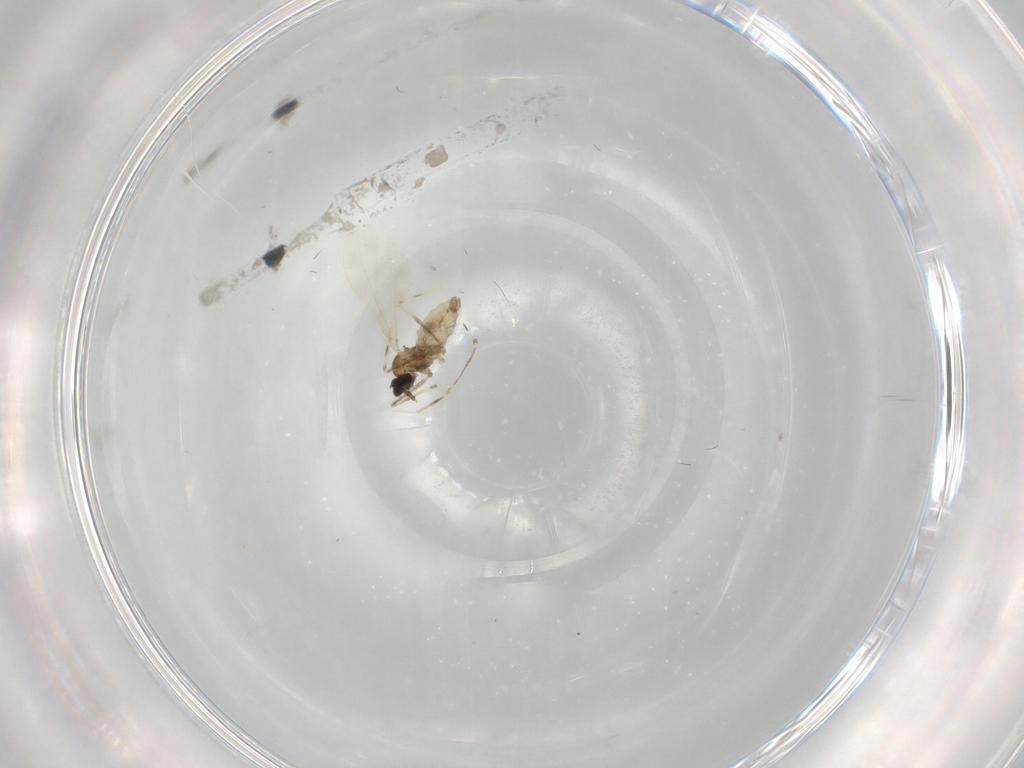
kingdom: Animalia
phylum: Arthropoda
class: Insecta
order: Diptera
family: Cecidomyiidae
